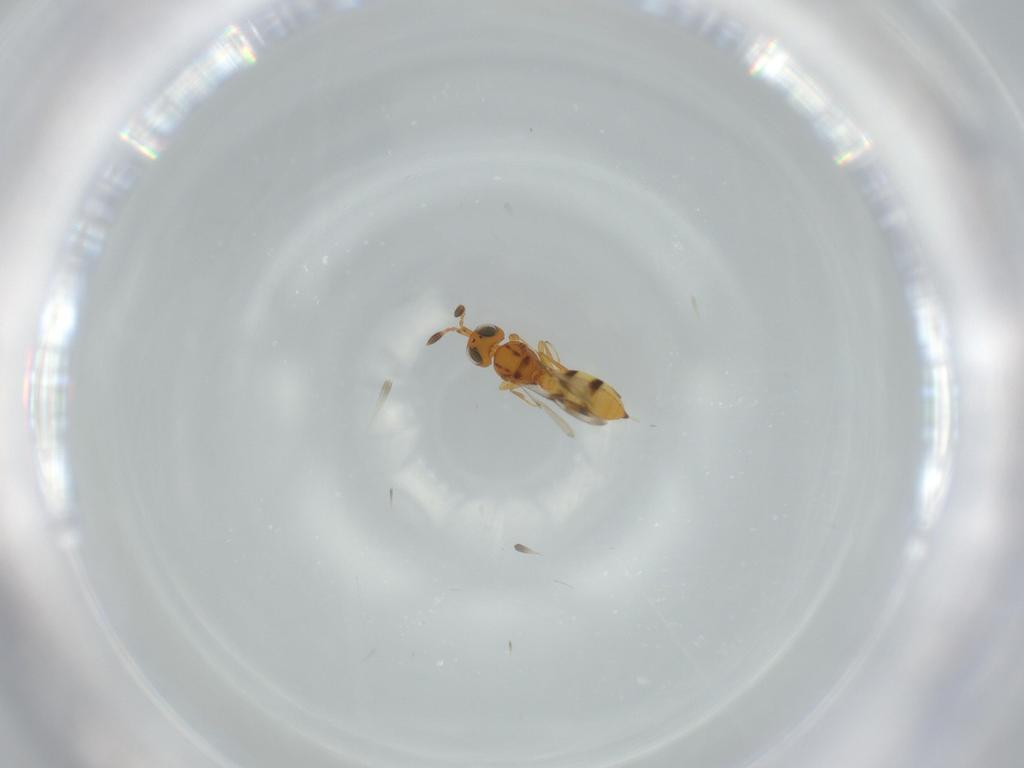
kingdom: Animalia
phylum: Arthropoda
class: Insecta
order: Hymenoptera
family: Scelionidae
